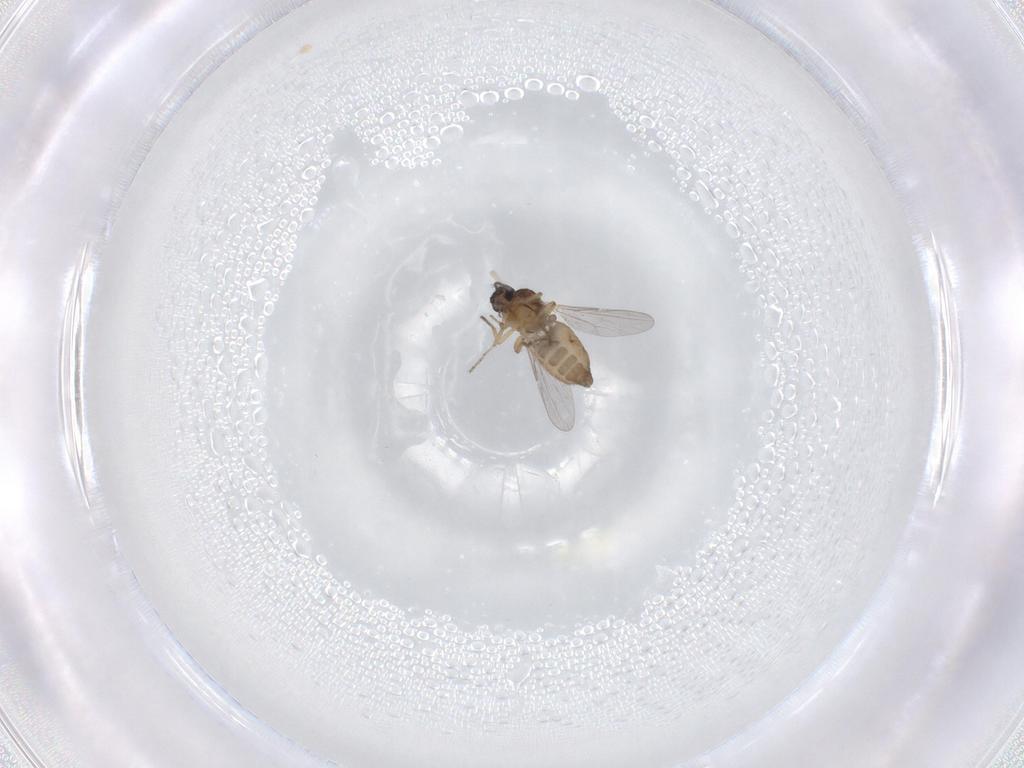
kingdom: Animalia
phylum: Arthropoda
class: Insecta
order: Diptera
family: Ceratopogonidae
